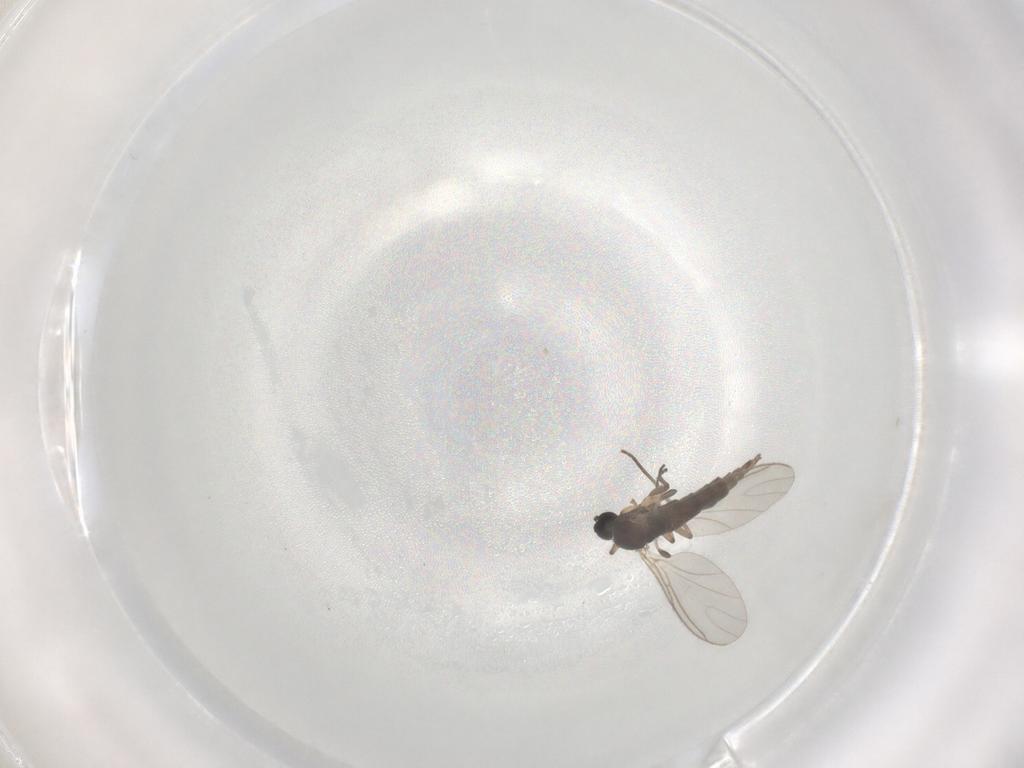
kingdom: Animalia
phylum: Arthropoda
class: Insecta
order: Diptera
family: Sciaridae
